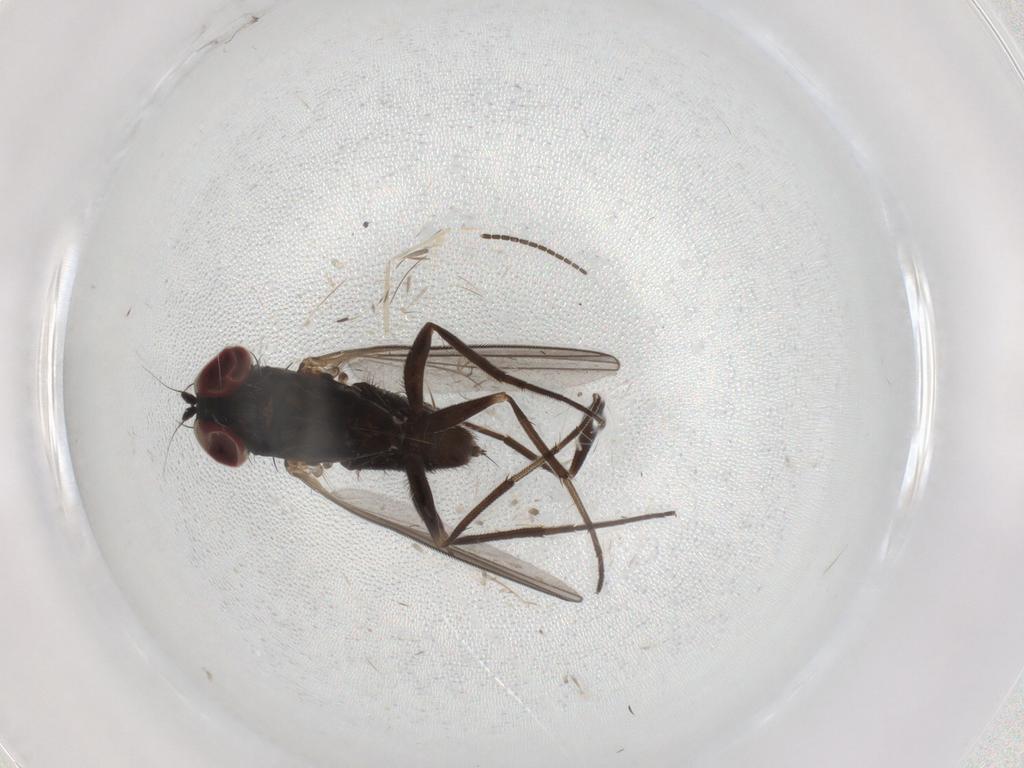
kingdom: Animalia
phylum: Arthropoda
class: Insecta
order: Diptera
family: Dolichopodidae
